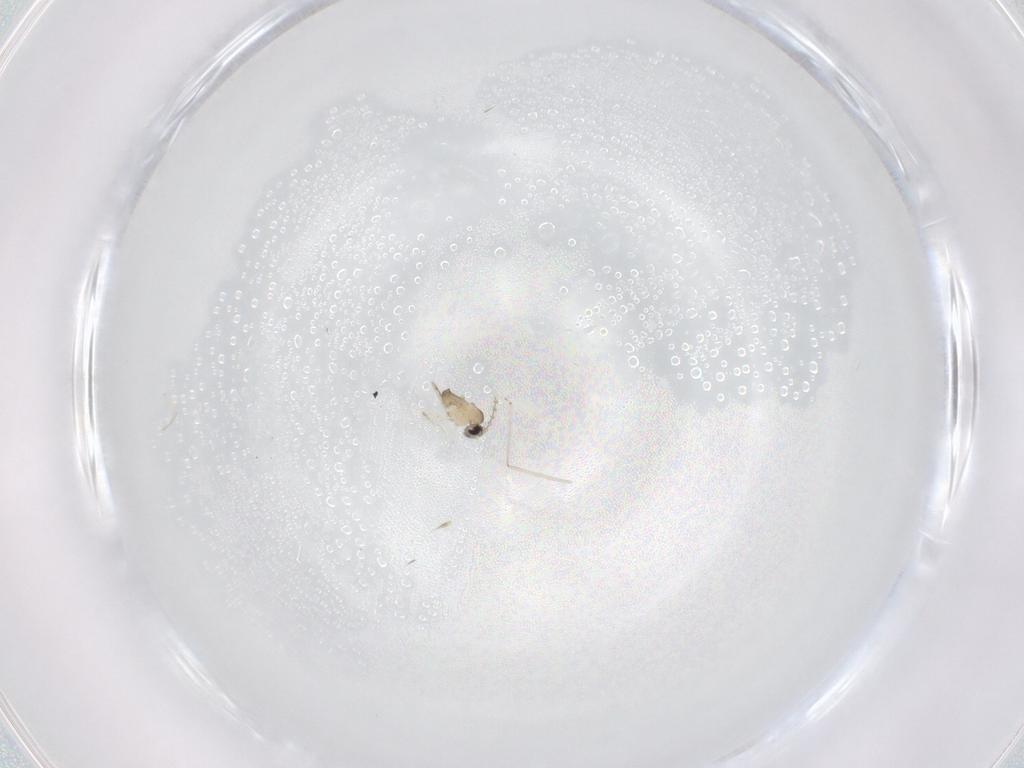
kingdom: Animalia
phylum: Arthropoda
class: Insecta
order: Diptera
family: Cecidomyiidae
